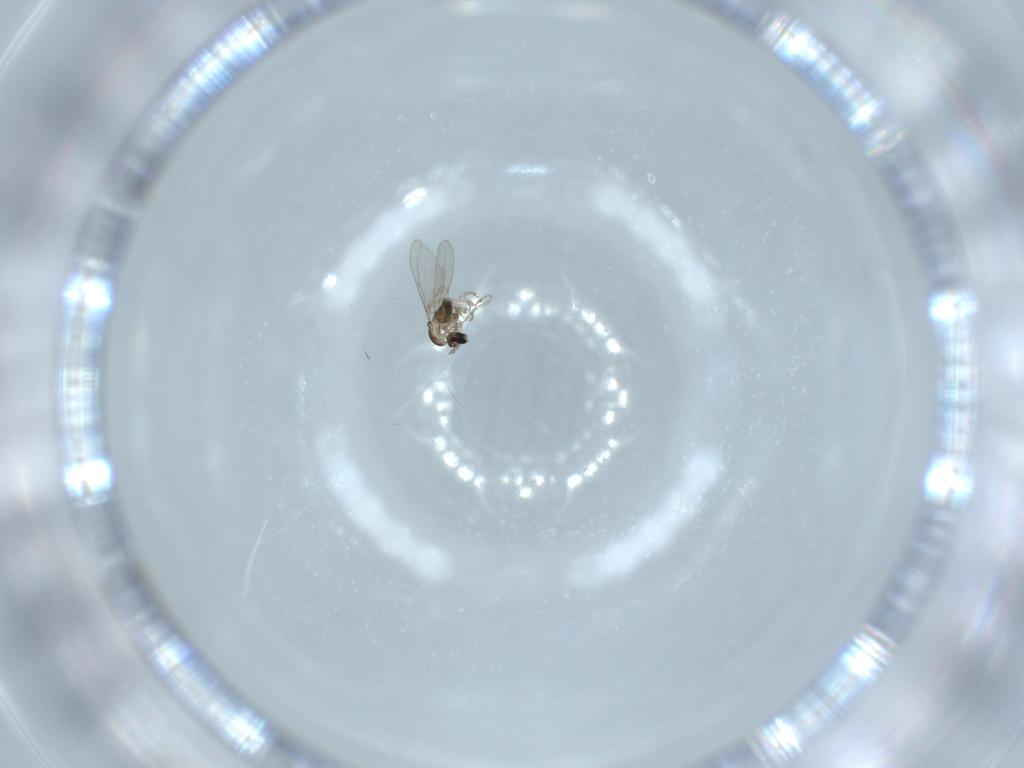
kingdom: Animalia
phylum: Arthropoda
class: Insecta
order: Diptera
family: Cecidomyiidae
